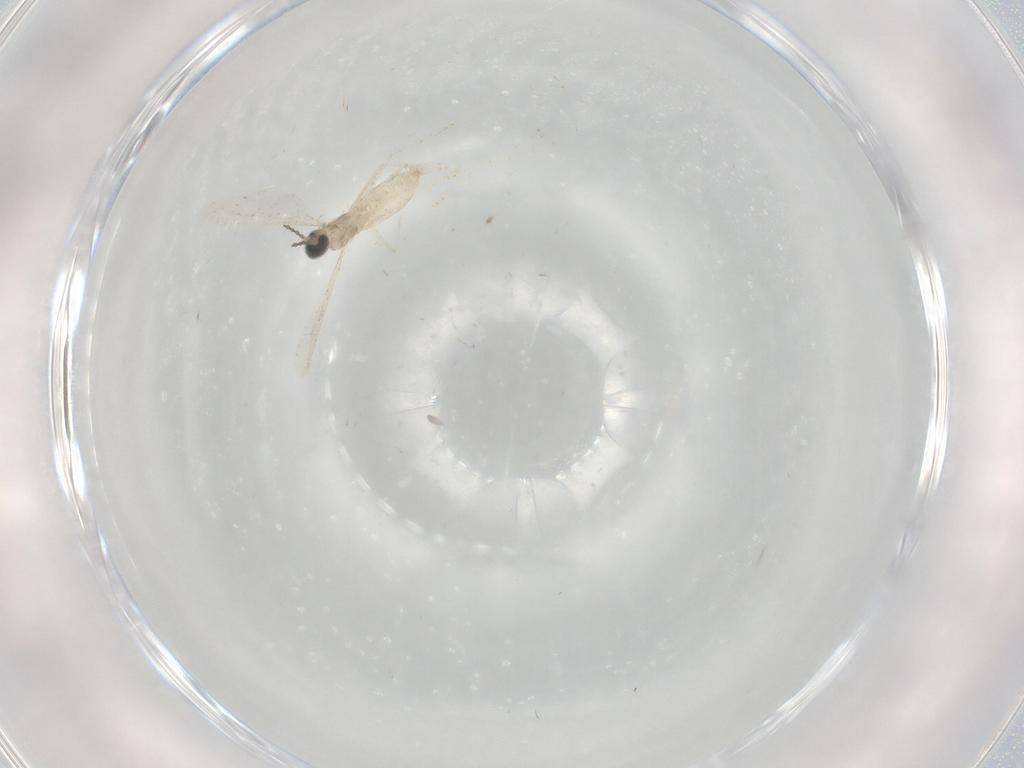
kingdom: Animalia
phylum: Arthropoda
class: Insecta
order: Diptera
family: Cecidomyiidae
